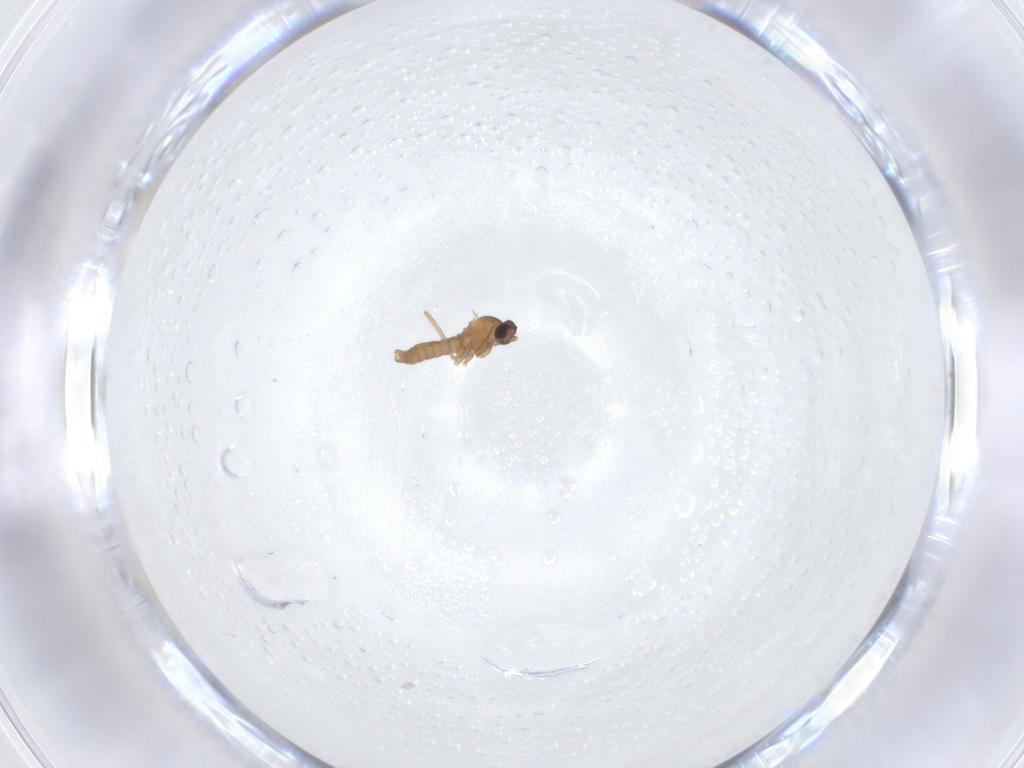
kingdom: Animalia
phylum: Arthropoda
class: Insecta
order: Diptera
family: Cecidomyiidae
